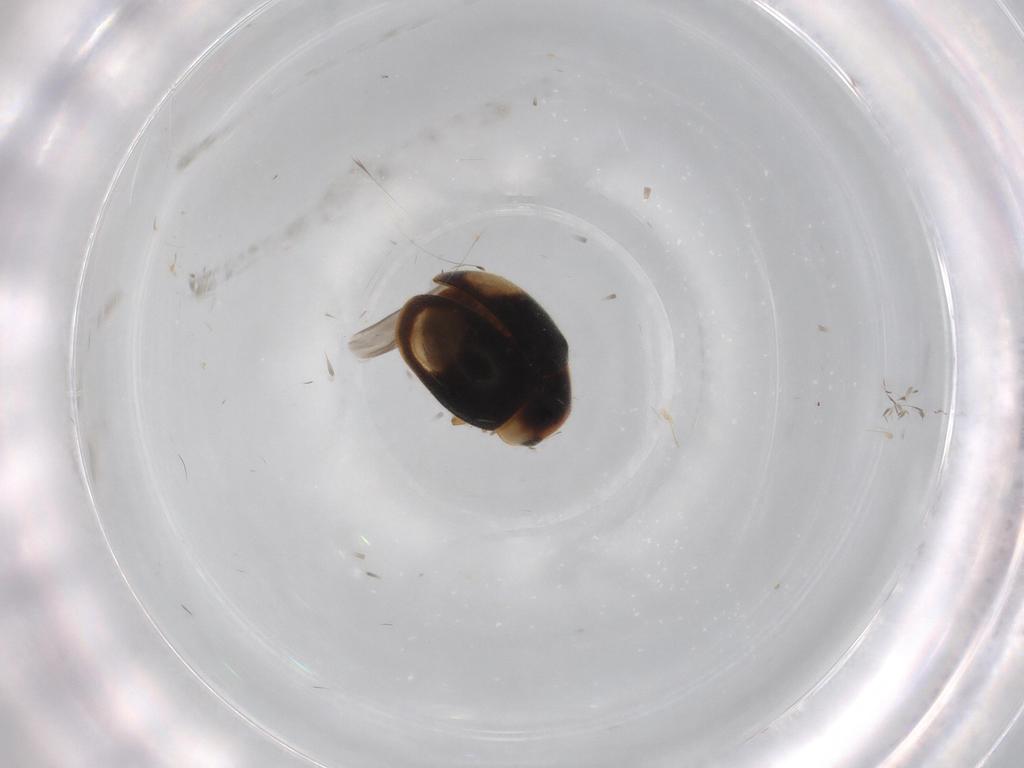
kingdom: Animalia
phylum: Arthropoda
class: Insecta
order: Coleoptera
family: Coccinellidae
